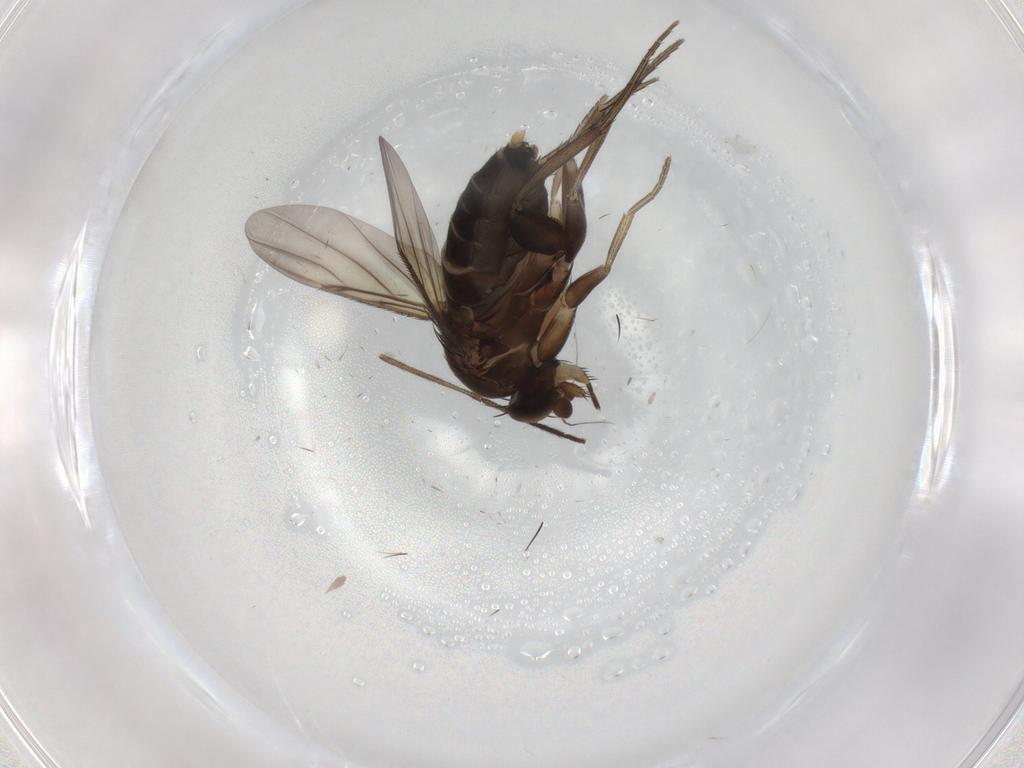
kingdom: Animalia
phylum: Arthropoda
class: Insecta
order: Diptera
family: Phoridae
